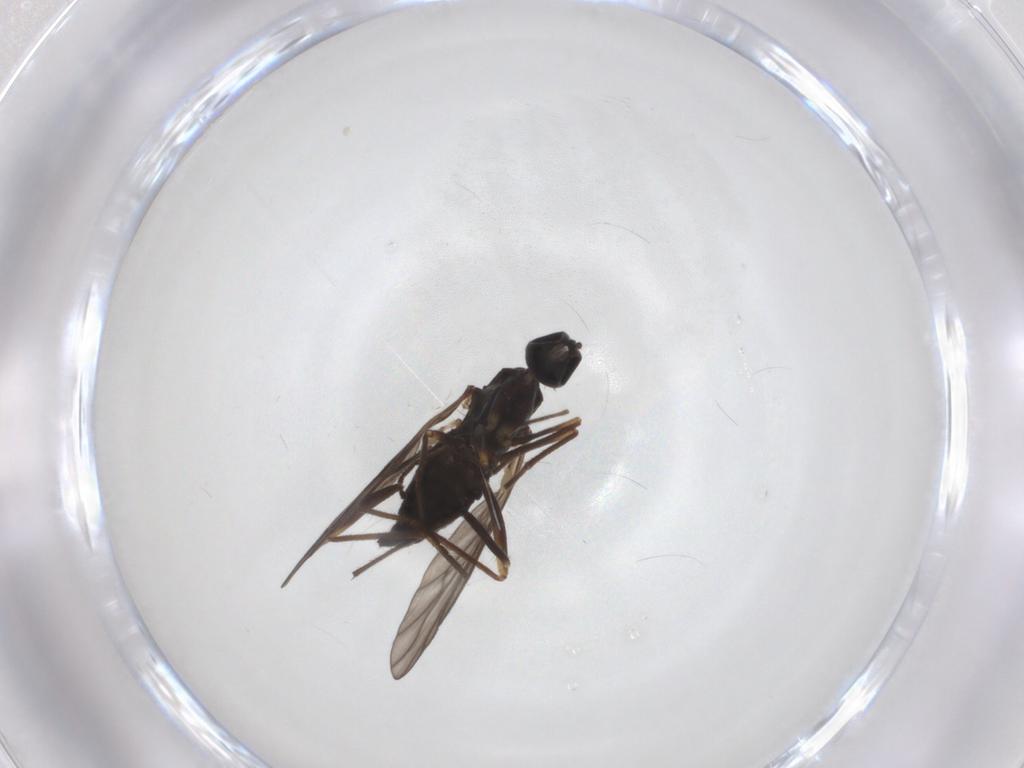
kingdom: Animalia
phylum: Arthropoda
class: Insecta
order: Diptera
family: Chironomidae
